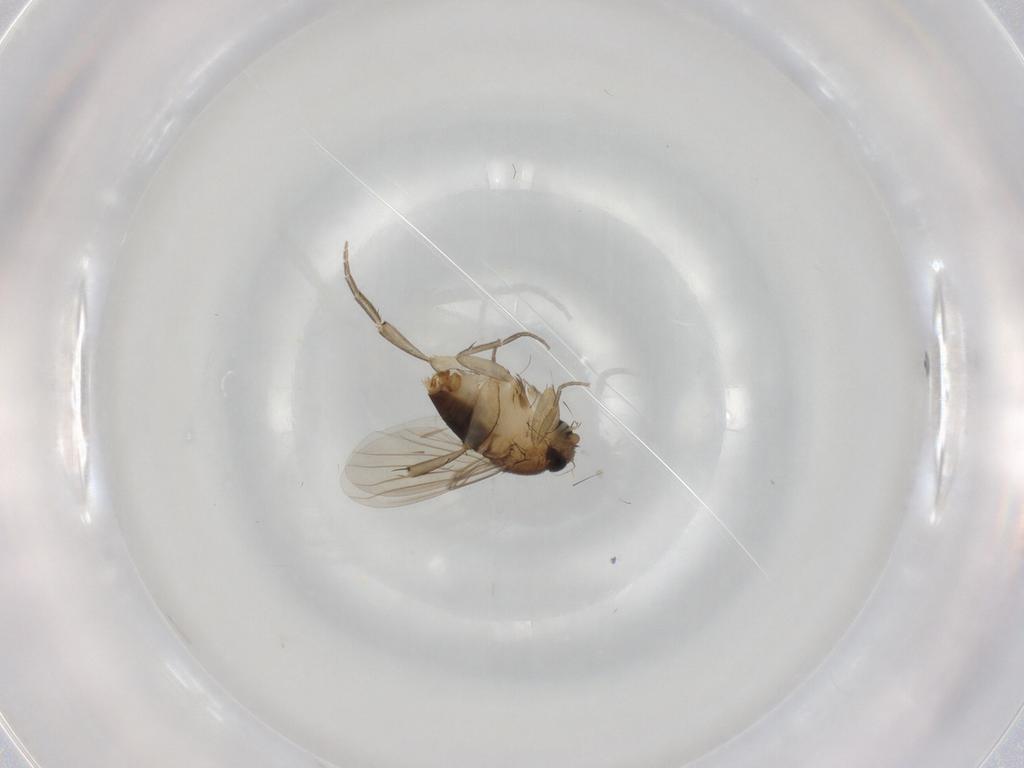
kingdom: Animalia
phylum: Arthropoda
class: Insecta
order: Diptera
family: Phoridae
